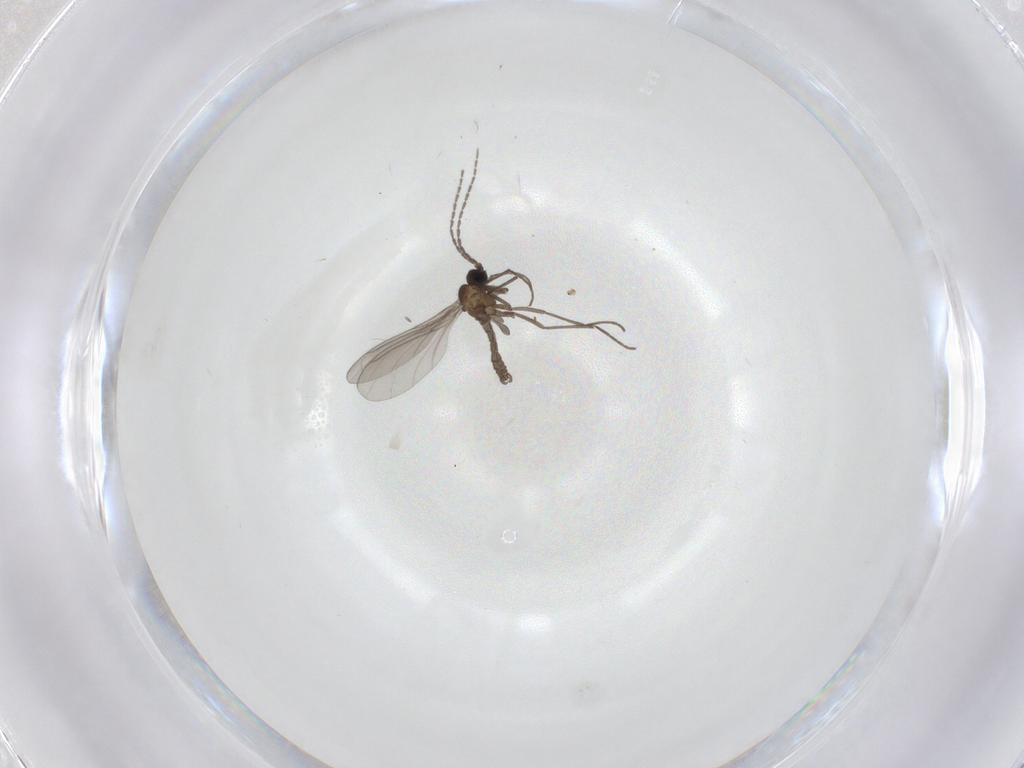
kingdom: Animalia
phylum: Arthropoda
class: Insecta
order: Diptera
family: Sciaridae
